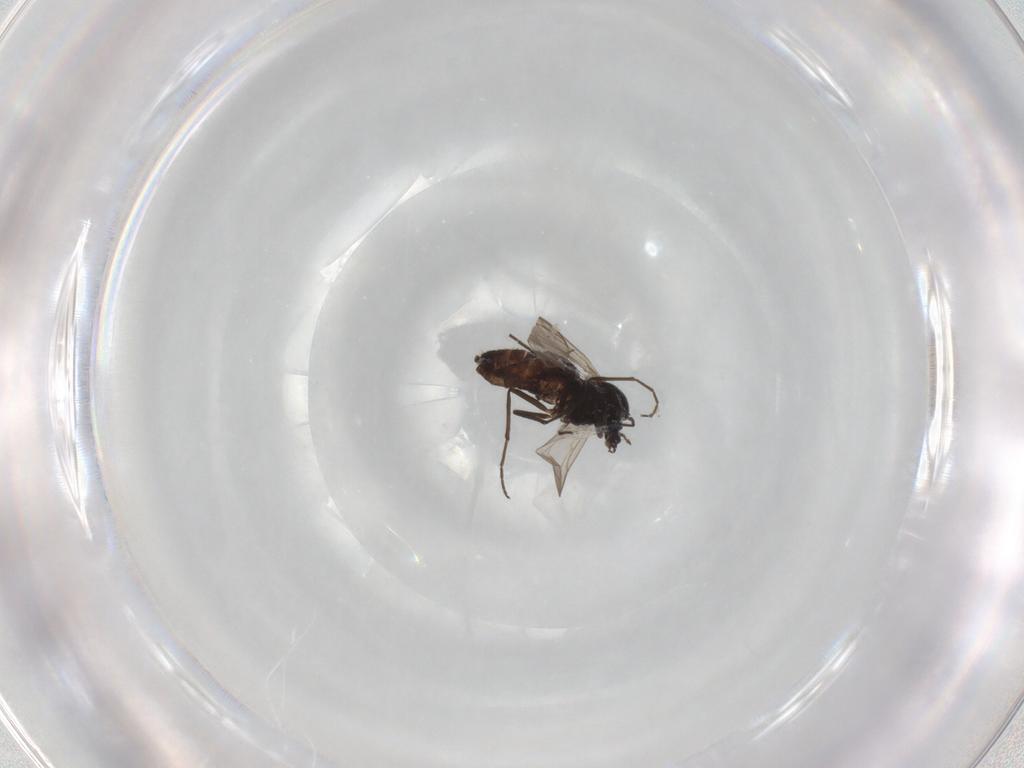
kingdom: Animalia
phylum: Arthropoda
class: Insecta
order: Diptera
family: Chironomidae
